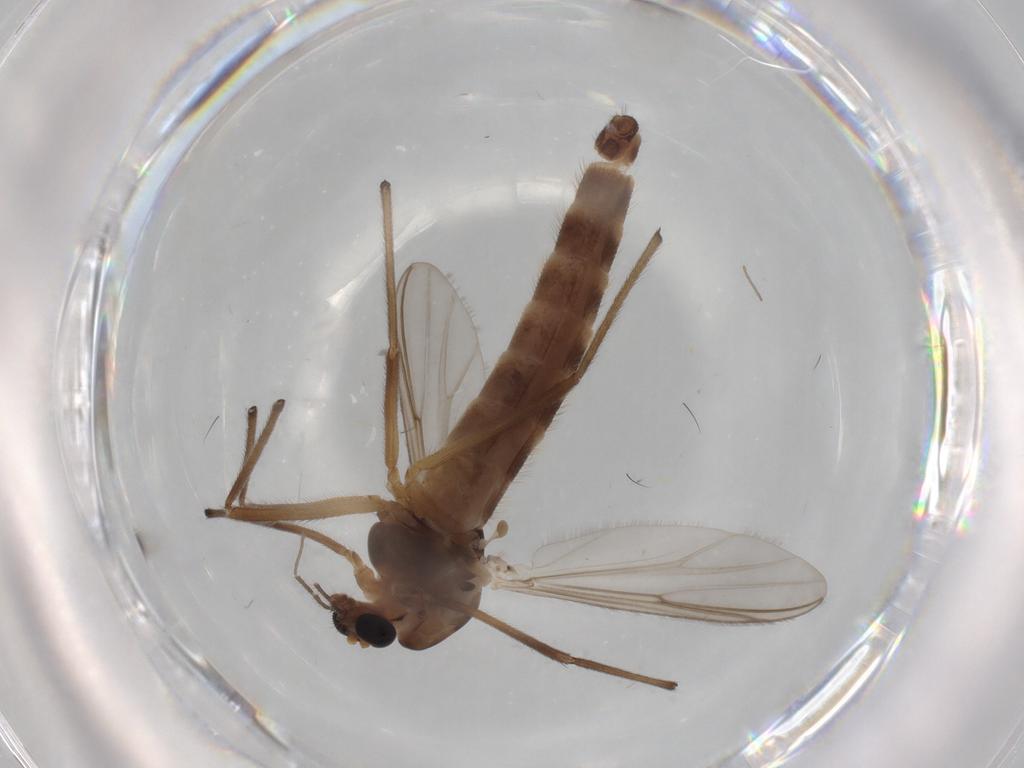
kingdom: Animalia
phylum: Arthropoda
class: Insecta
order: Diptera
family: Chironomidae
